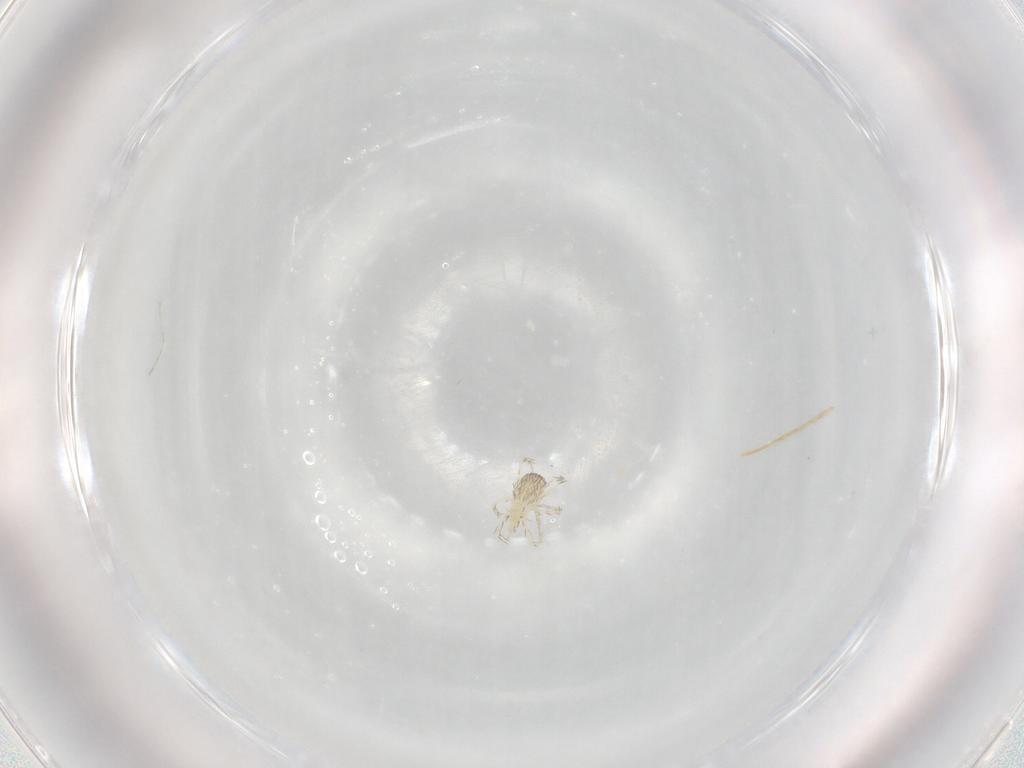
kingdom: Animalia
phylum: Arthropoda
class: Arachnida
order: Trombidiformes
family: Erythraeidae
